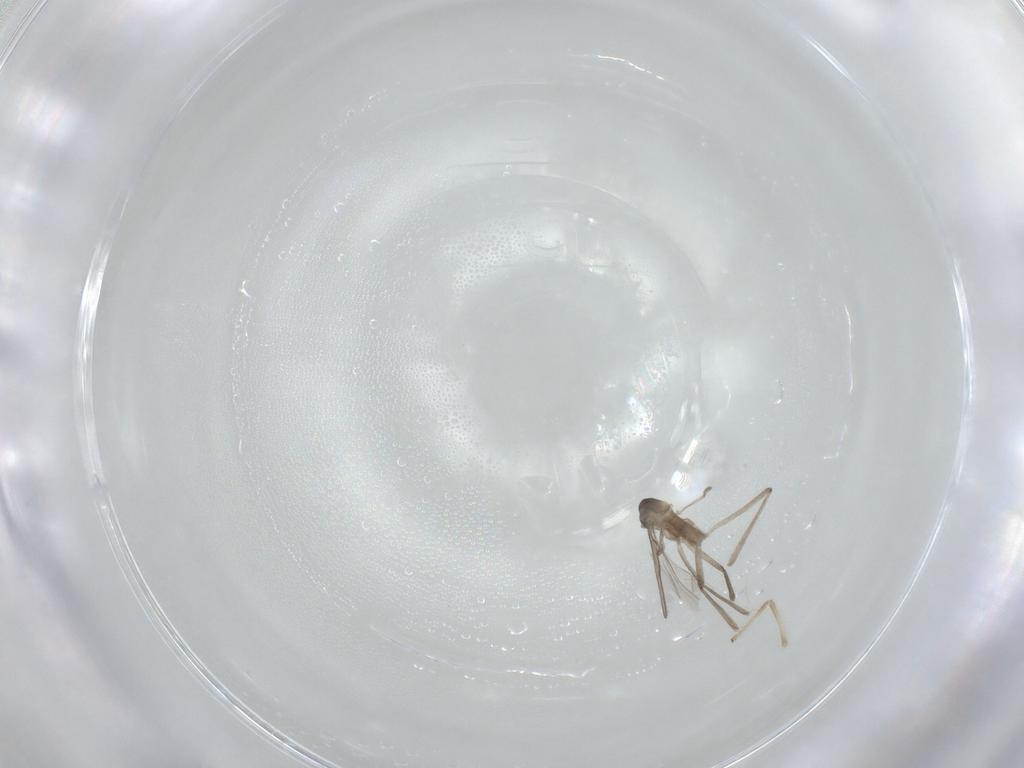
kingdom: Animalia
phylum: Arthropoda
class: Insecta
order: Diptera
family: Cecidomyiidae
